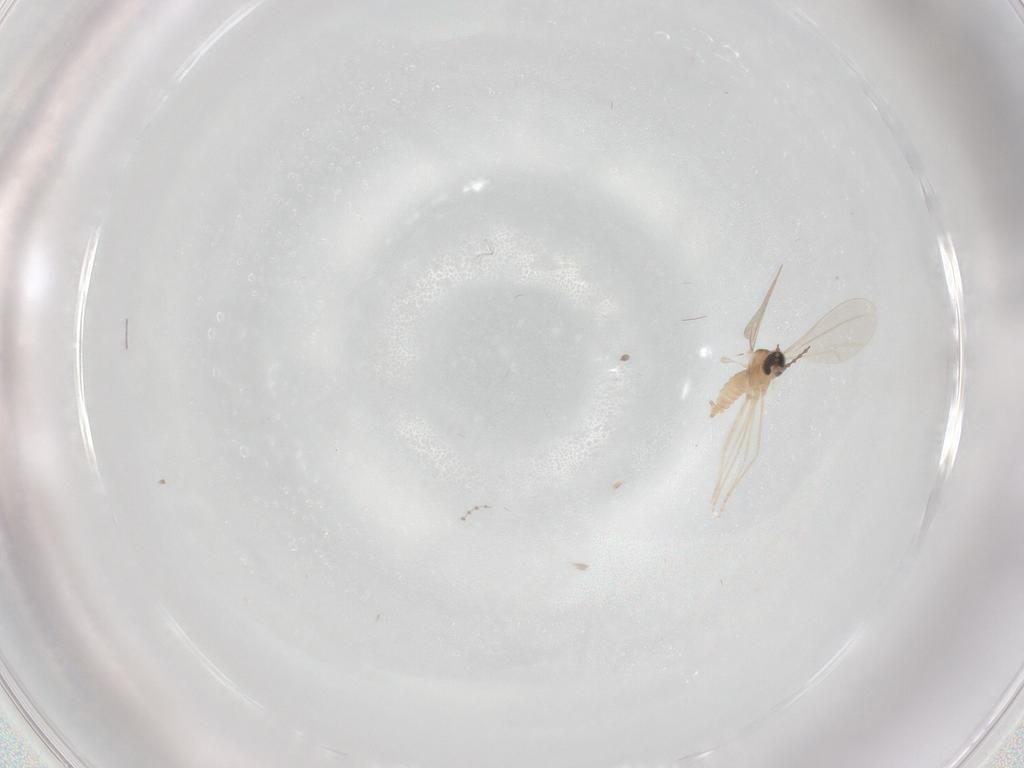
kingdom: Animalia
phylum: Arthropoda
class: Insecta
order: Diptera
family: Cecidomyiidae
